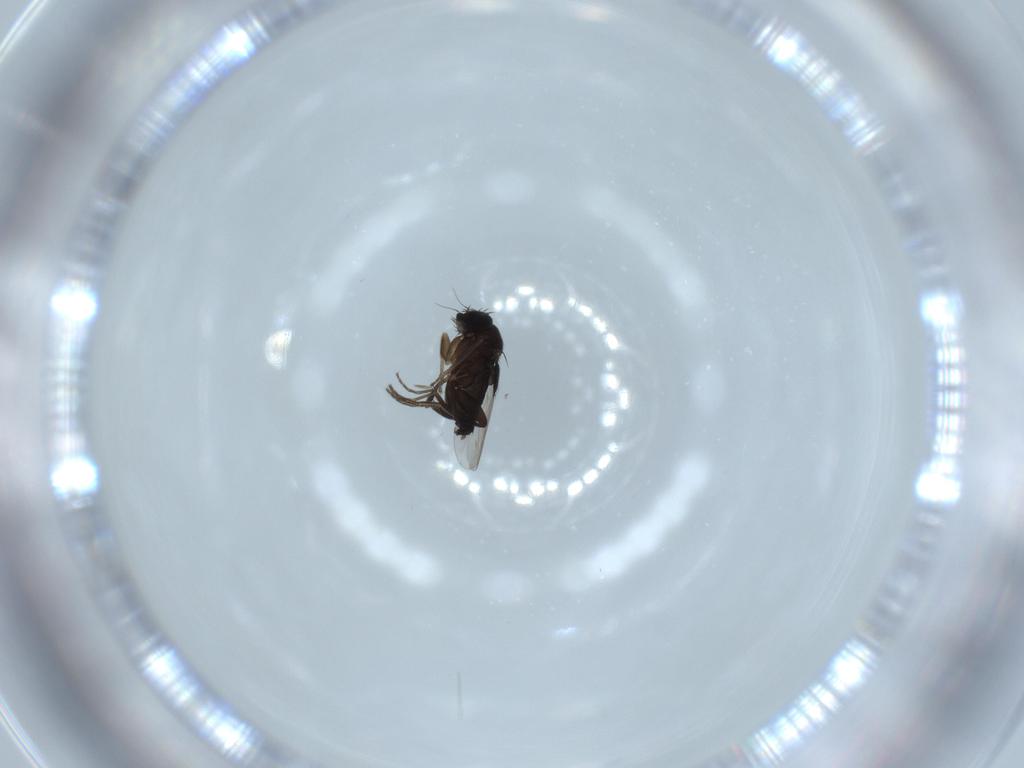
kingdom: Animalia
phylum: Arthropoda
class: Insecta
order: Diptera
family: Phoridae
